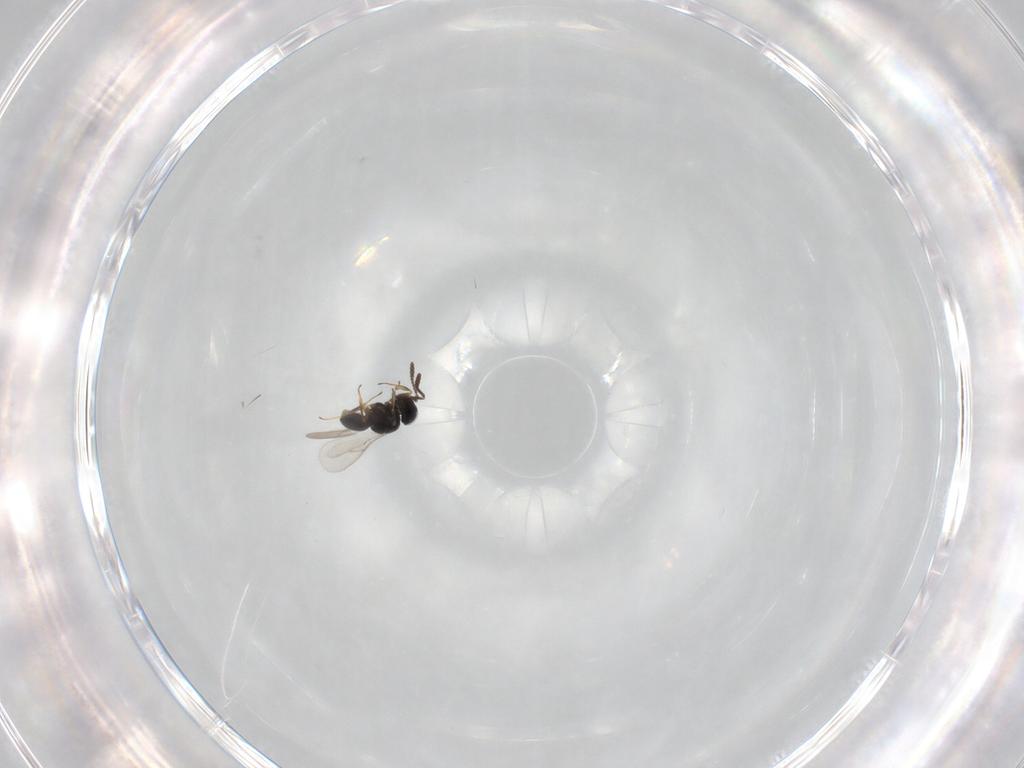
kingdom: Animalia
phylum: Arthropoda
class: Insecta
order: Hymenoptera
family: Scelionidae
